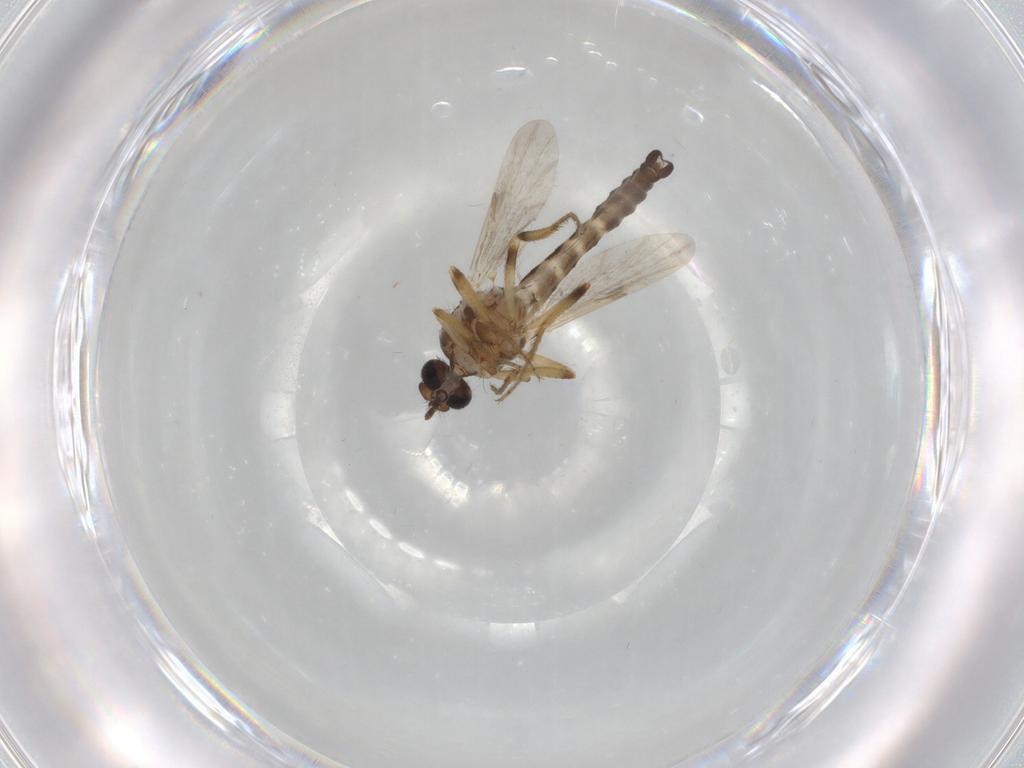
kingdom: Animalia
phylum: Arthropoda
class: Insecta
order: Diptera
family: Ceratopogonidae
